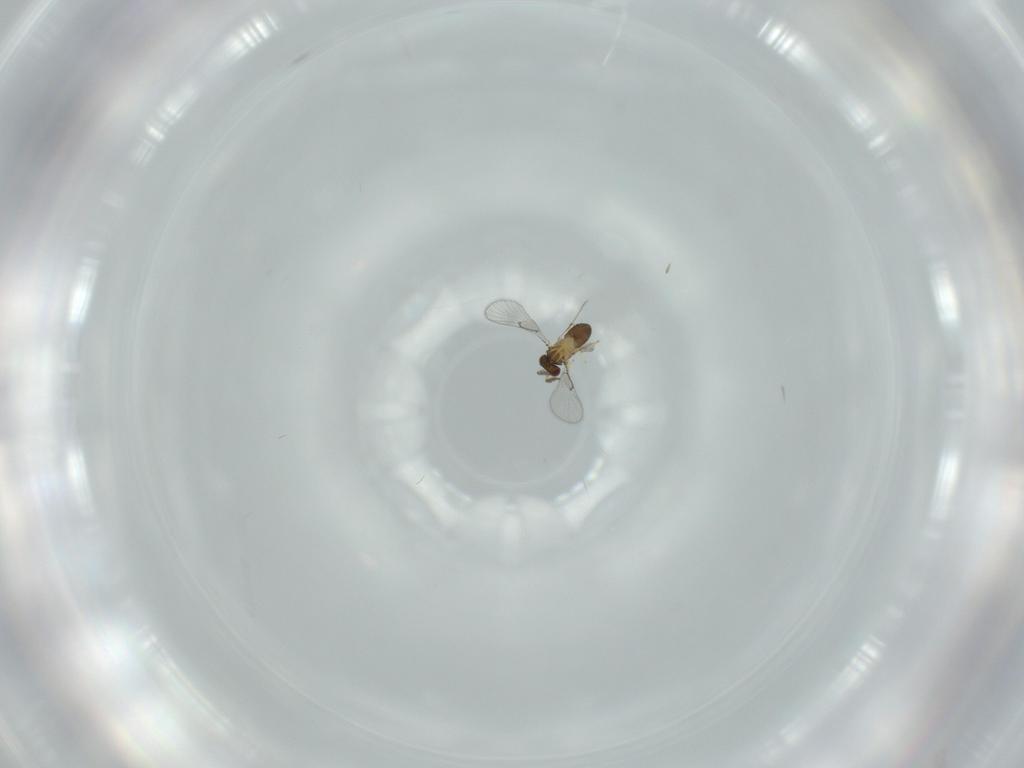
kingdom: Animalia
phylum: Arthropoda
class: Insecta
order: Hymenoptera
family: Trichogrammatidae
